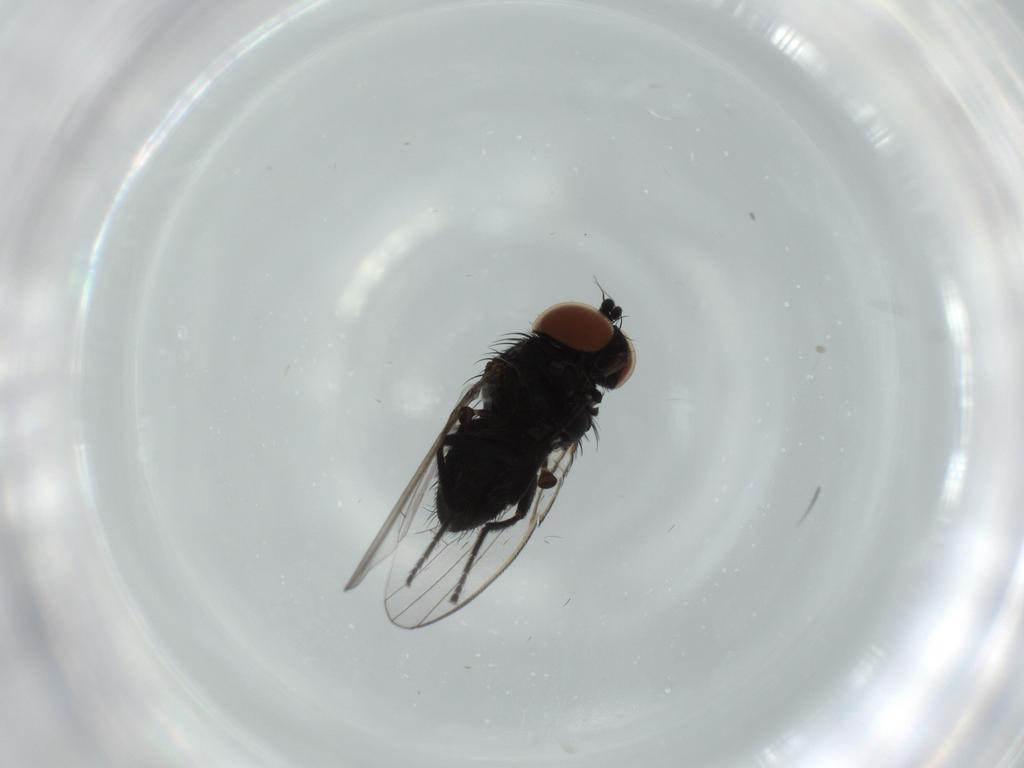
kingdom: Animalia
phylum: Arthropoda
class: Insecta
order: Diptera
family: Milichiidae
